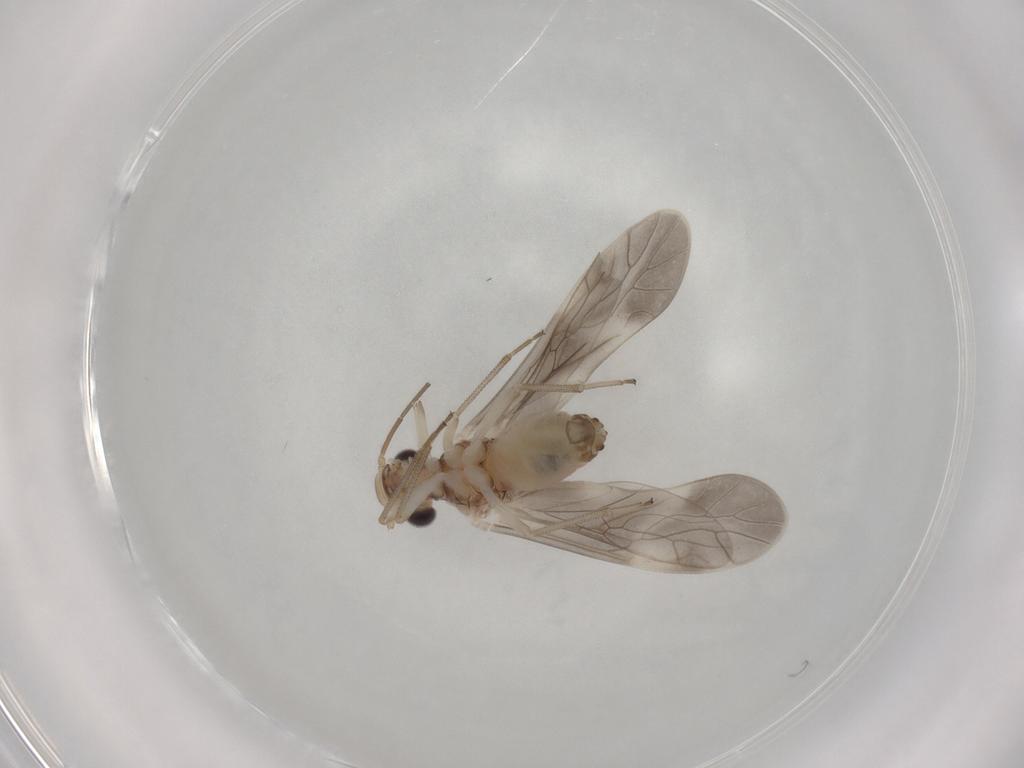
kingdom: Animalia
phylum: Arthropoda
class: Insecta
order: Psocodea
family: Caeciliusidae
